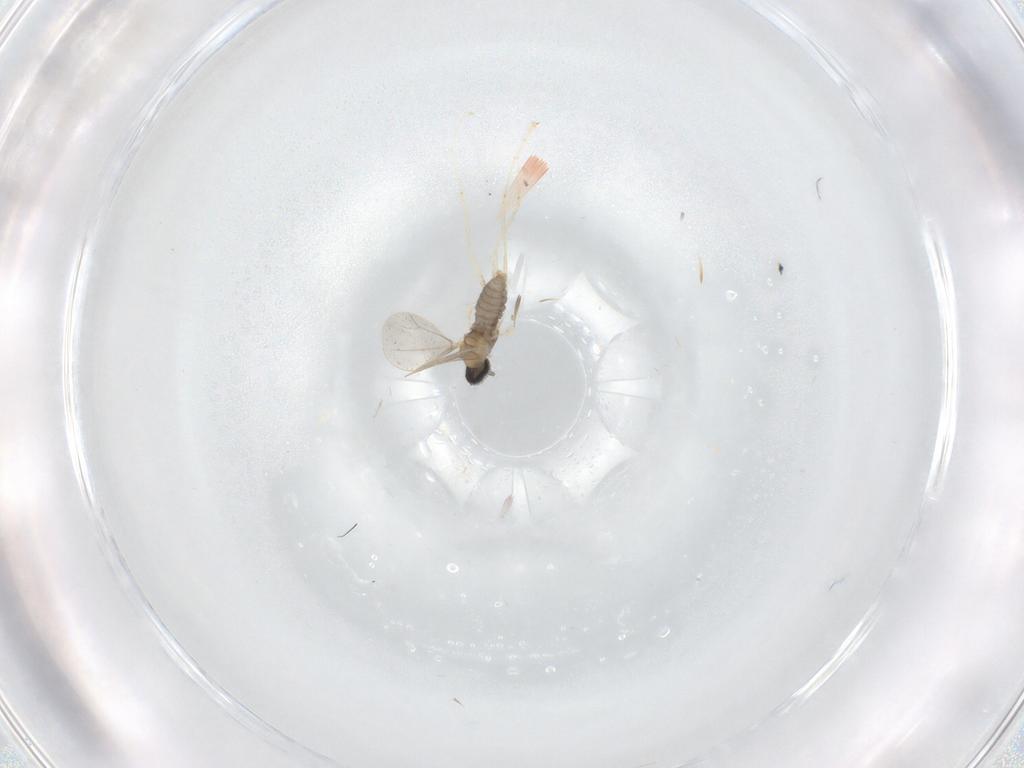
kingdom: Animalia
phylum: Arthropoda
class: Insecta
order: Diptera
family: Cecidomyiidae
